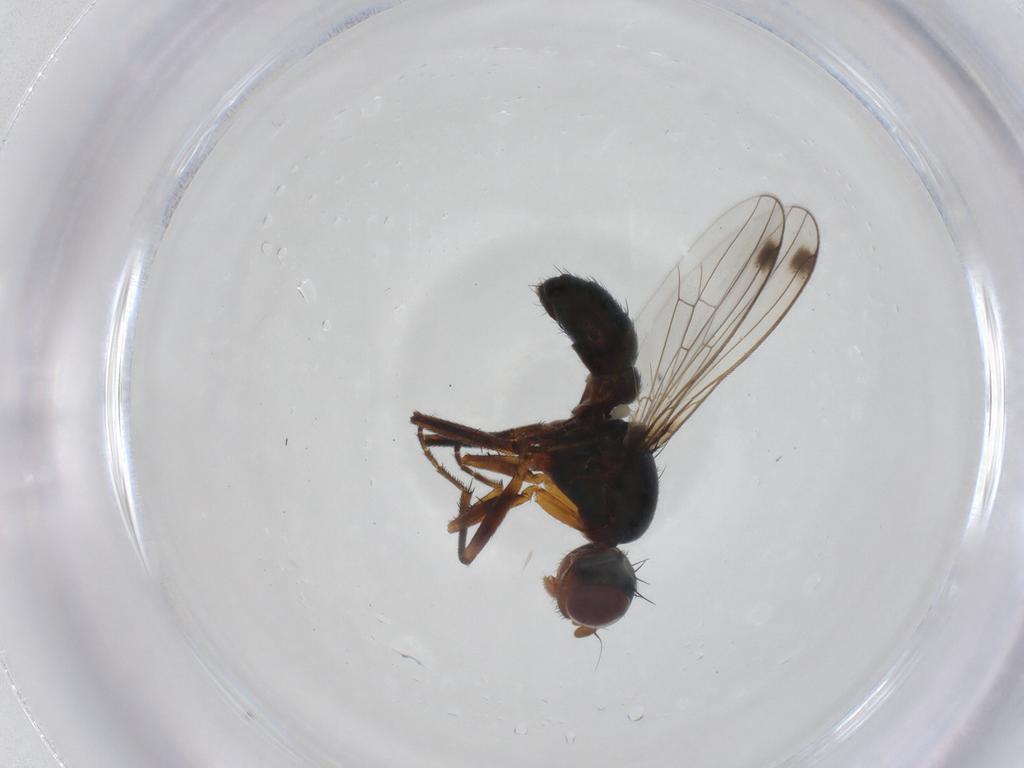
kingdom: Animalia
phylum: Arthropoda
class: Insecta
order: Diptera
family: Sepsidae
